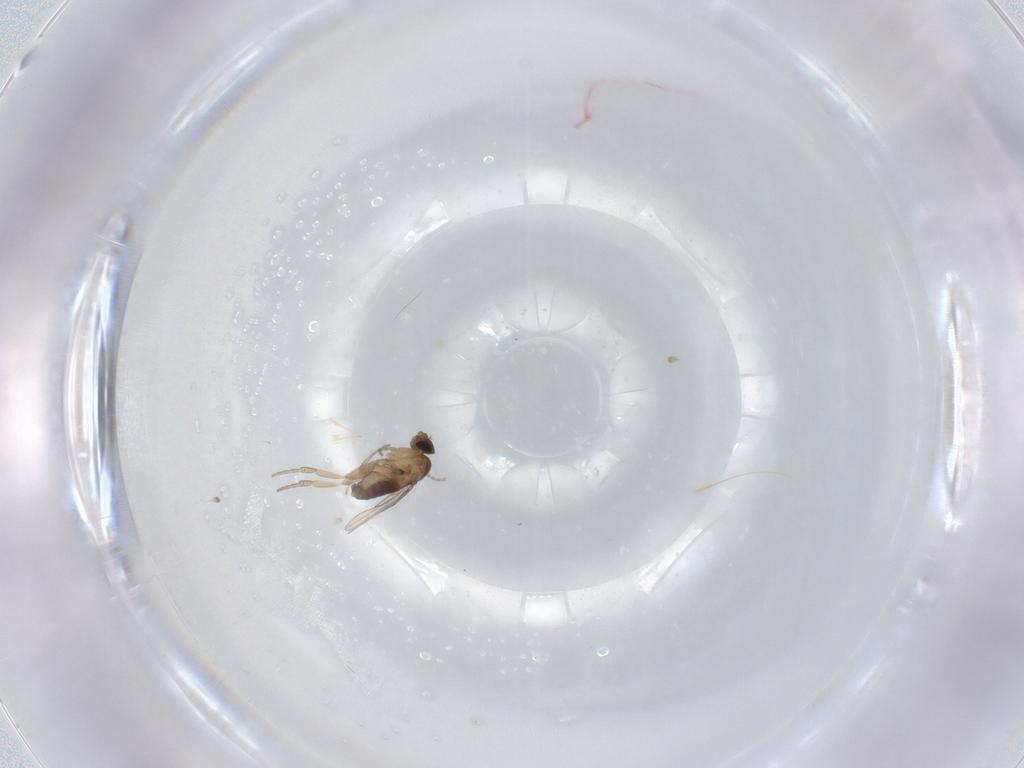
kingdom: Animalia
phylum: Arthropoda
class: Insecta
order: Diptera
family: Phoridae
